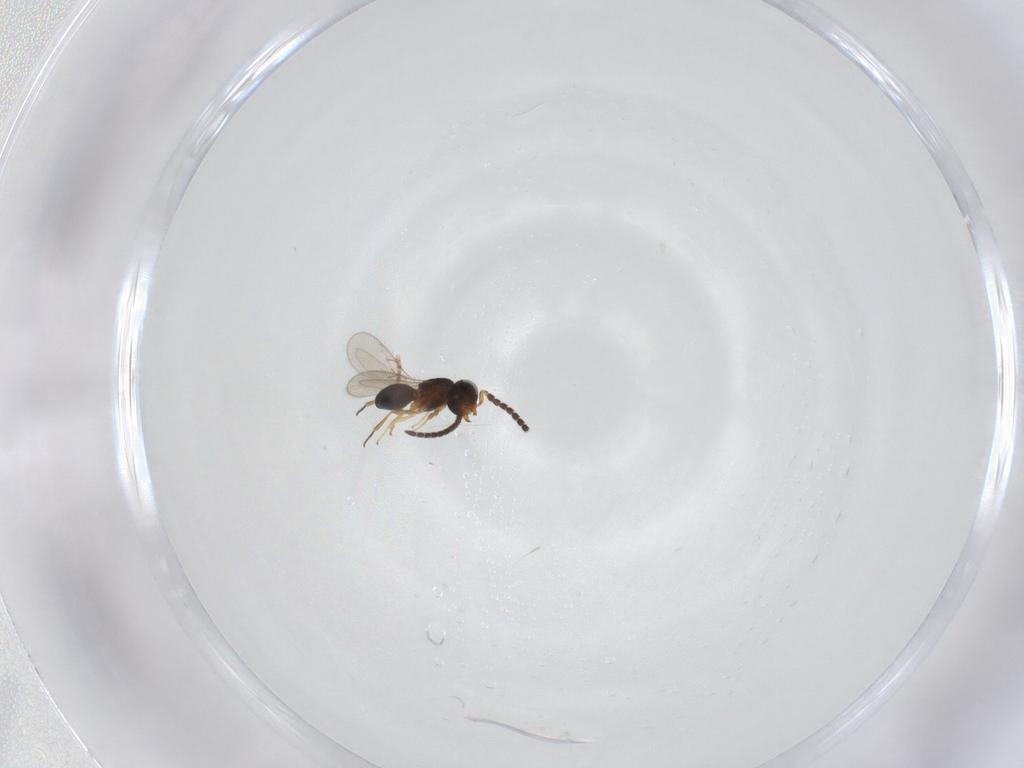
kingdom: Animalia
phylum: Arthropoda
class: Insecta
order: Hymenoptera
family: Scelionidae
